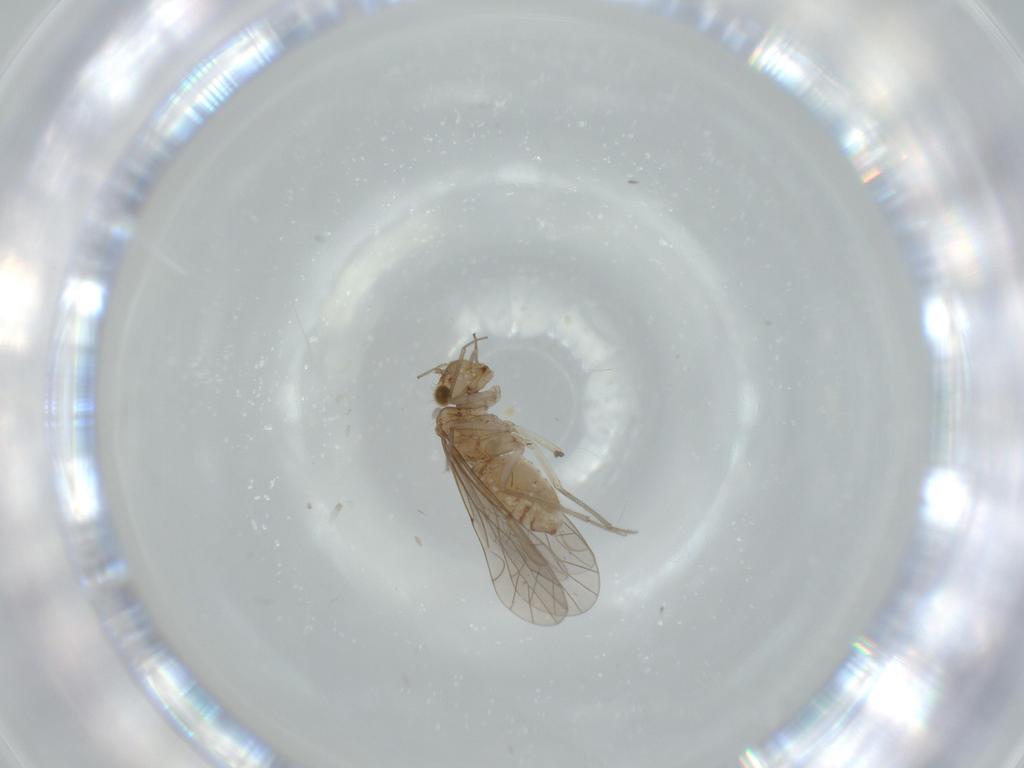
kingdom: Animalia
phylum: Arthropoda
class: Insecta
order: Psocodea
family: Lachesillidae
